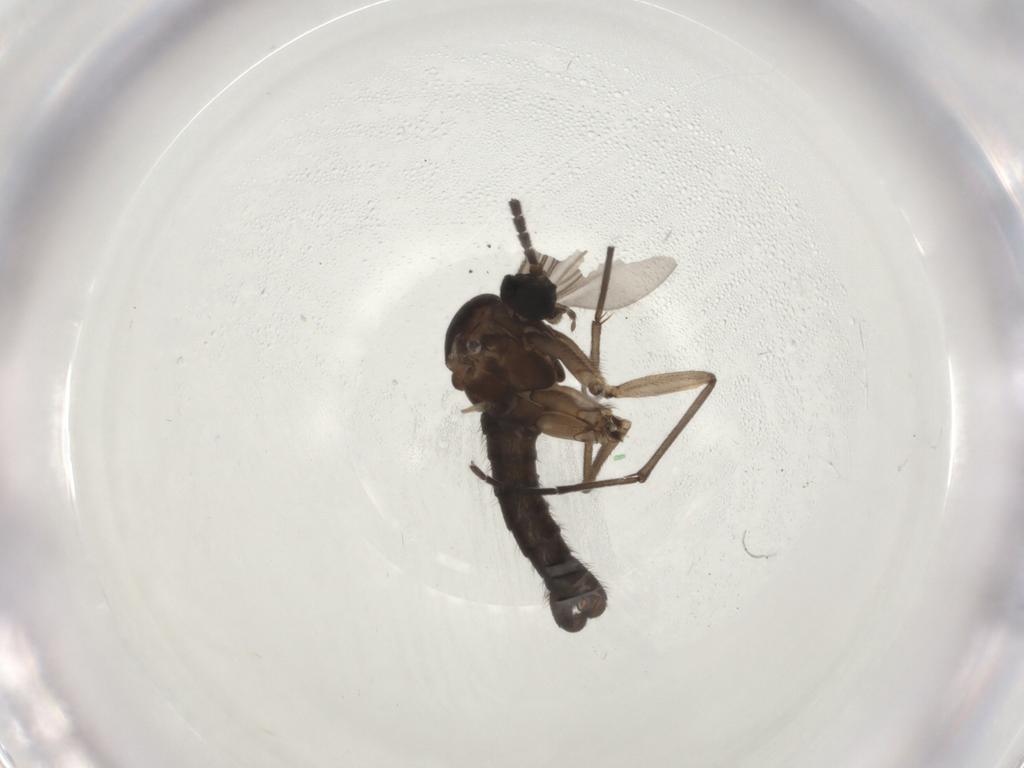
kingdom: Animalia
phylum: Arthropoda
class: Insecta
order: Diptera
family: Sciaridae
